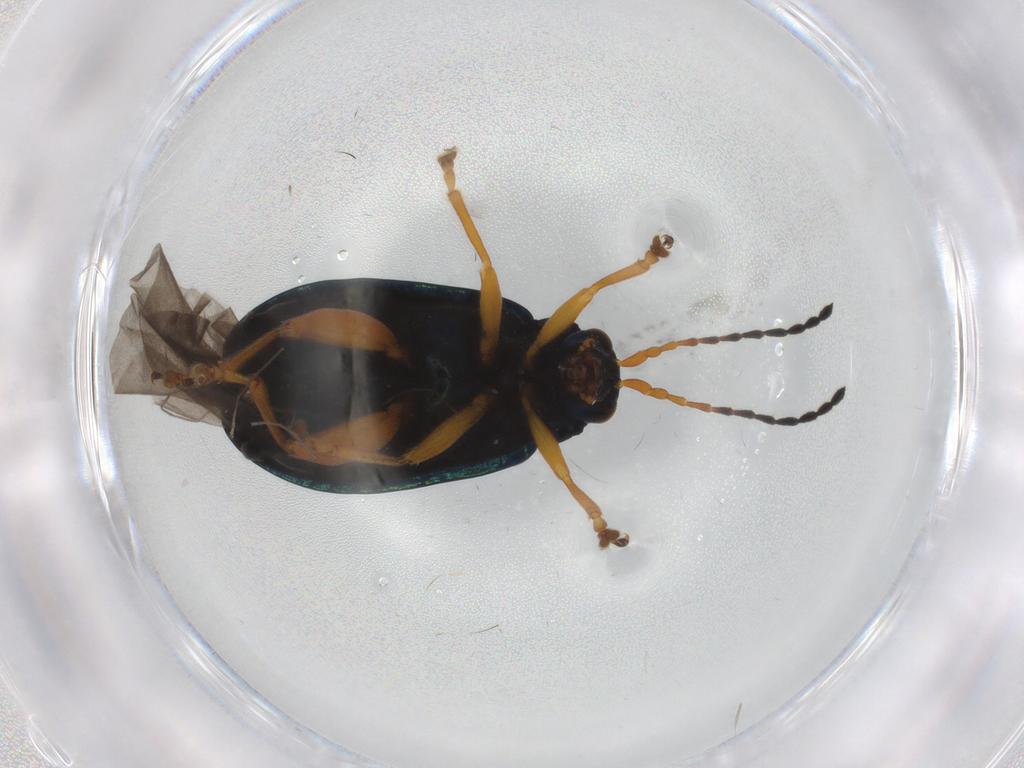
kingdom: Animalia
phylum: Arthropoda
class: Insecta
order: Coleoptera
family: Chrysomelidae
